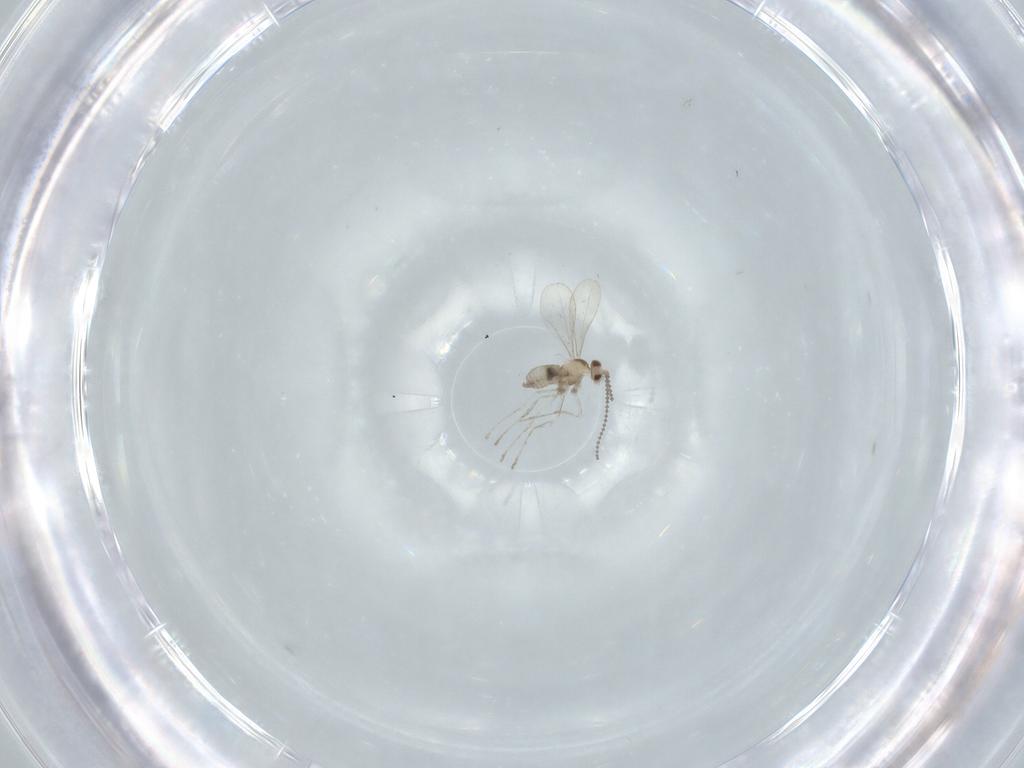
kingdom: Animalia
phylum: Arthropoda
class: Insecta
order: Diptera
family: Cecidomyiidae
